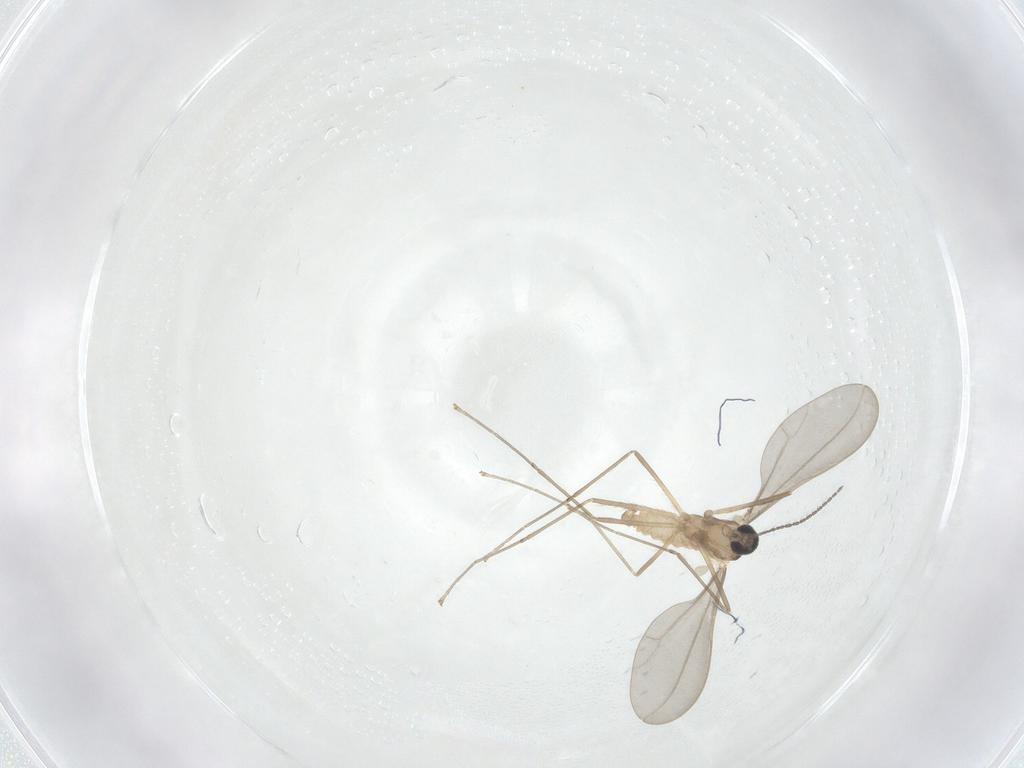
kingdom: Animalia
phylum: Arthropoda
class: Insecta
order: Diptera
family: Cecidomyiidae
